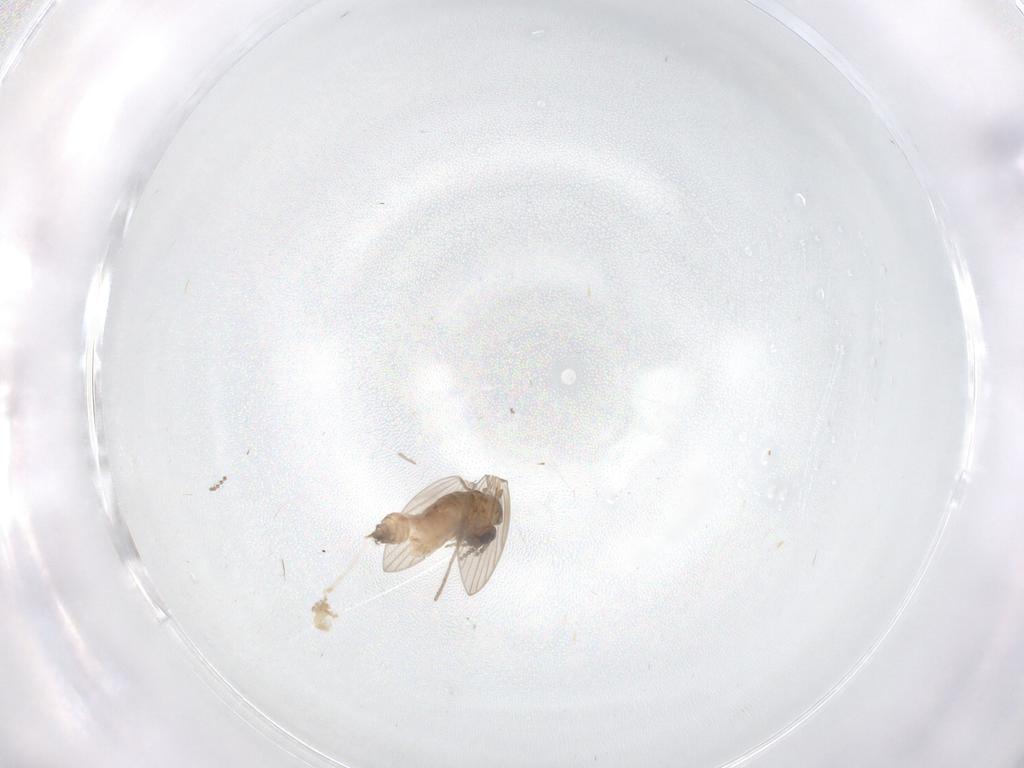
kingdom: Animalia
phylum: Arthropoda
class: Insecta
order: Diptera
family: Psychodidae
